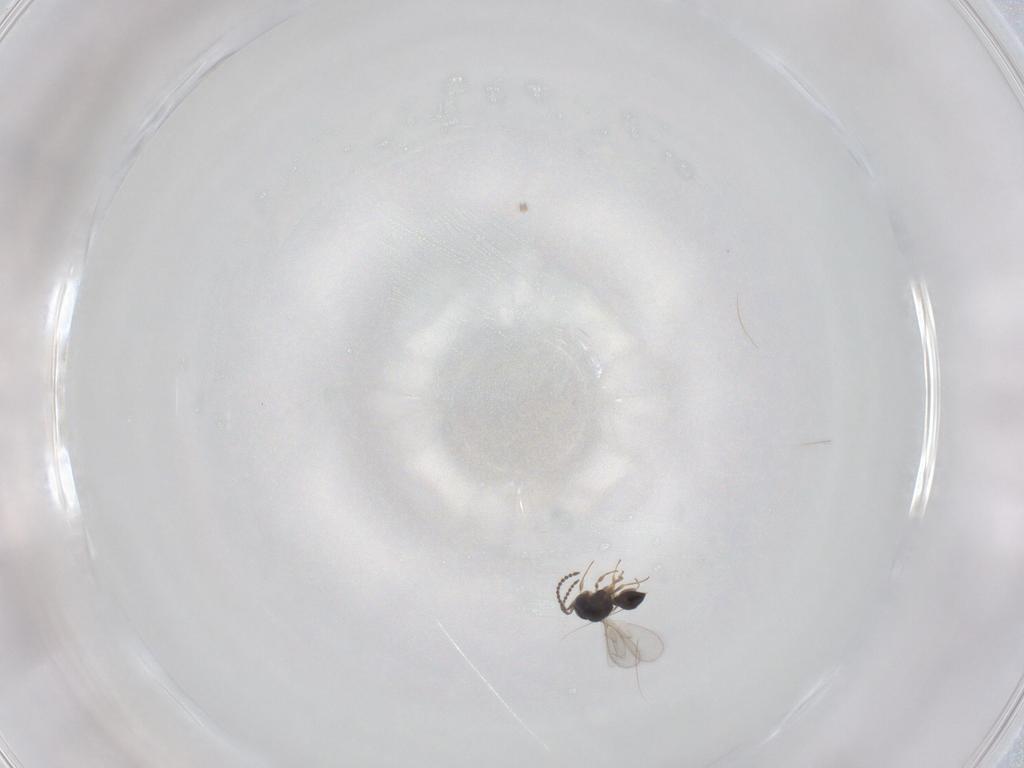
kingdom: Animalia
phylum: Arthropoda
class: Insecta
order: Hymenoptera
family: Scelionidae
